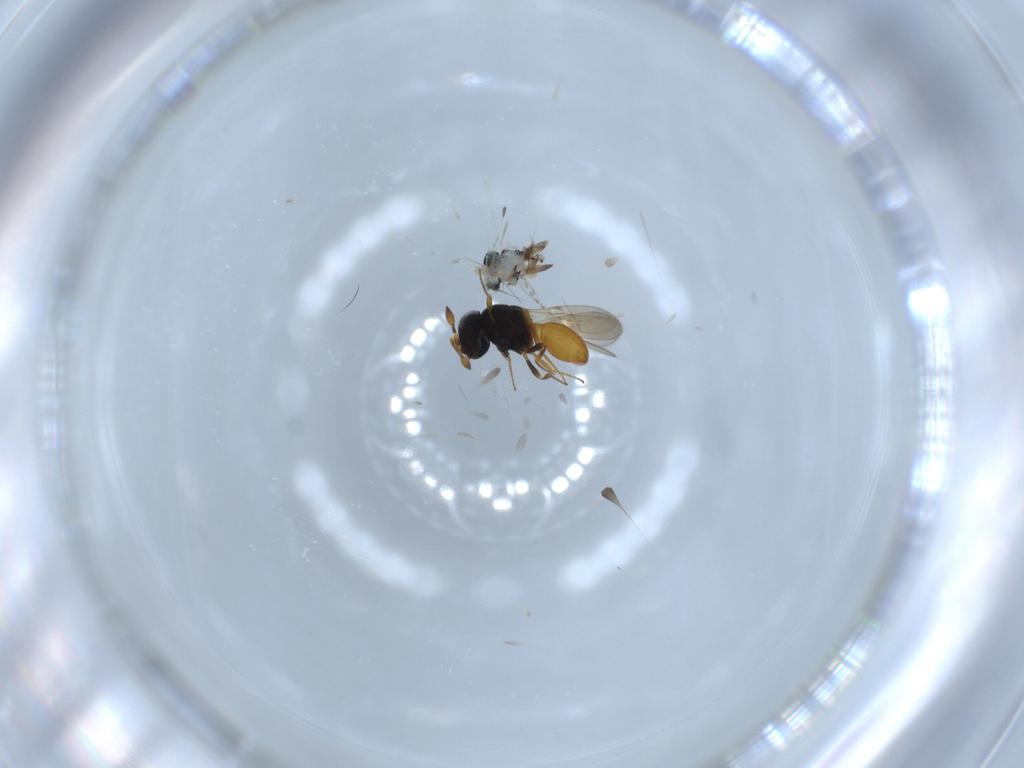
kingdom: Animalia
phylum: Arthropoda
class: Insecta
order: Hymenoptera
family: Scelionidae
